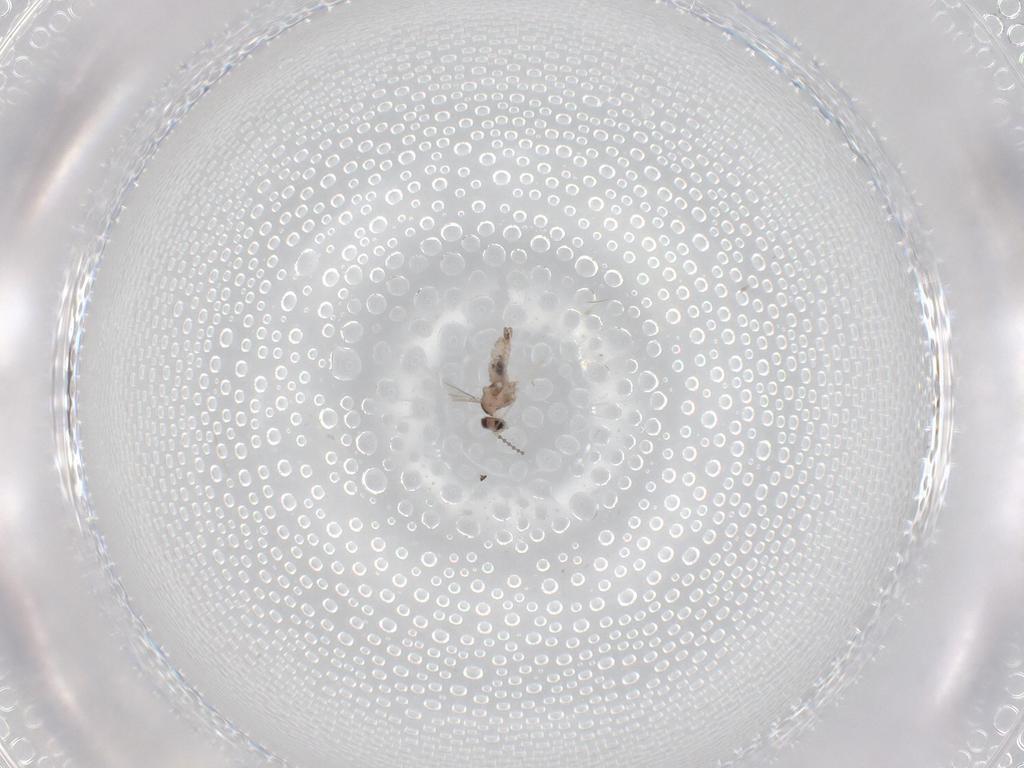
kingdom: Animalia
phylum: Arthropoda
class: Insecta
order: Diptera
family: Cecidomyiidae
